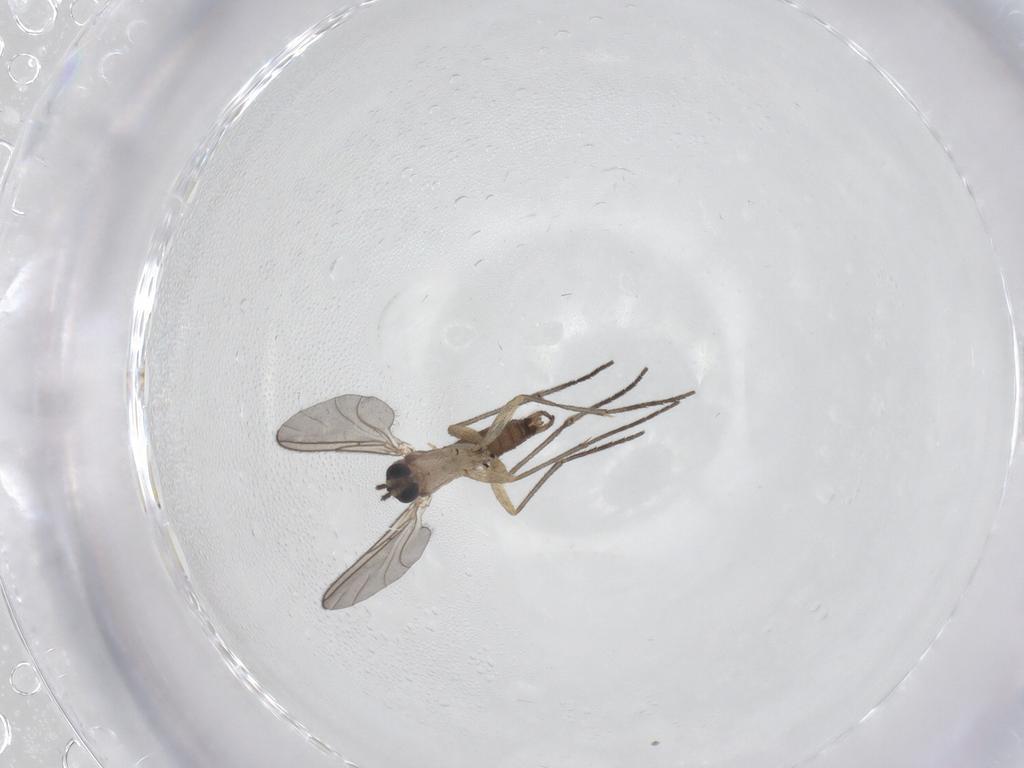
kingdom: Animalia
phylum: Arthropoda
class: Insecta
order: Diptera
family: Sciaridae
